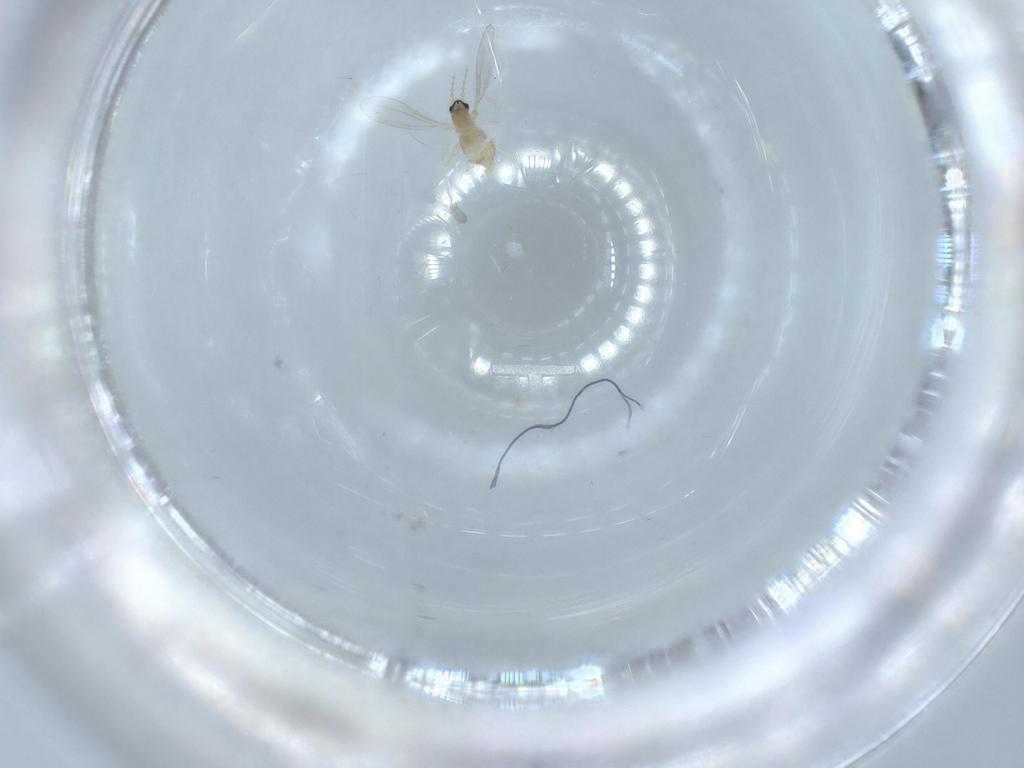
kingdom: Animalia
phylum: Arthropoda
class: Insecta
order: Diptera
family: Cecidomyiidae
